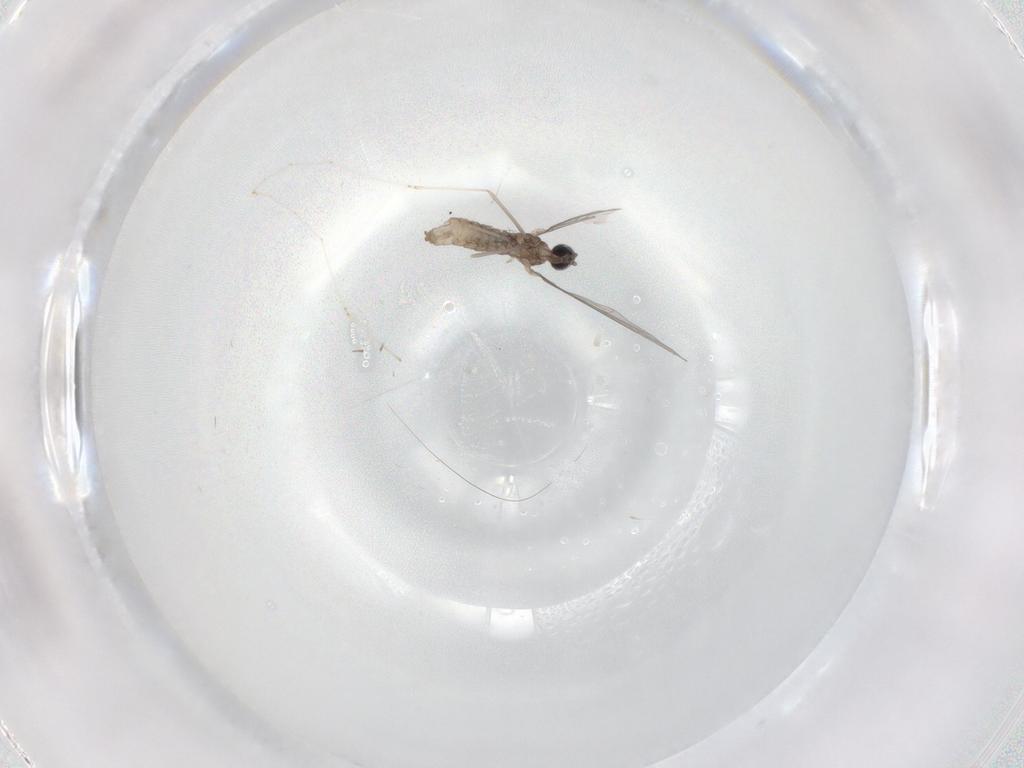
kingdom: Animalia
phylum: Arthropoda
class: Insecta
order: Diptera
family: Cecidomyiidae
